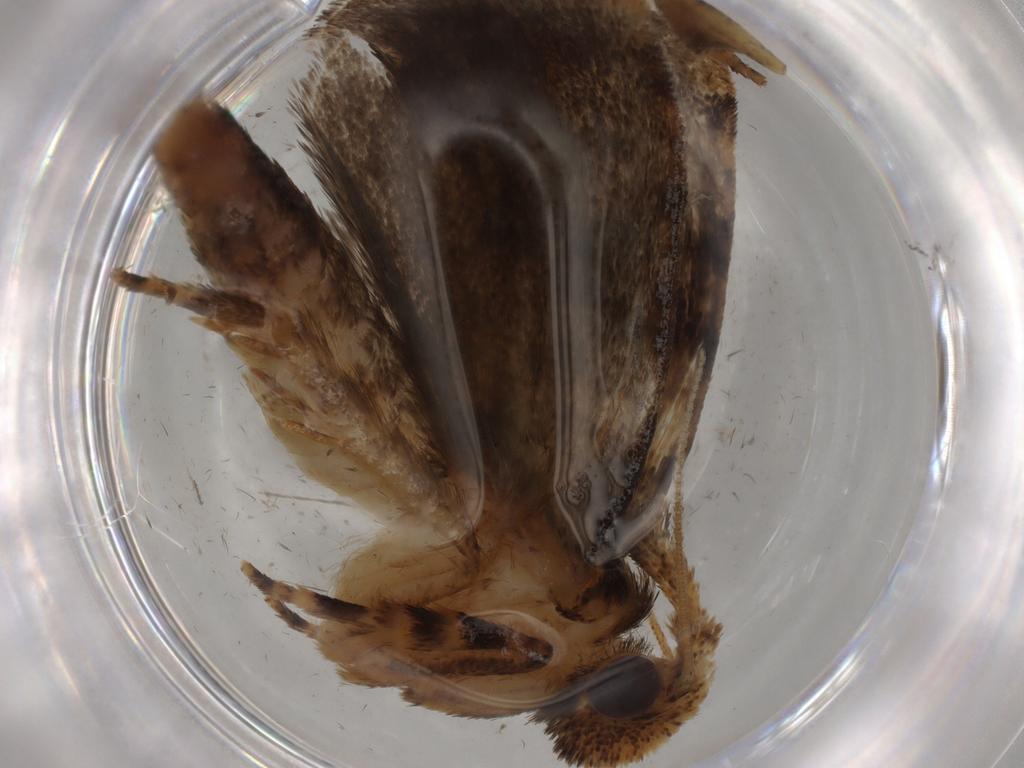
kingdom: Animalia
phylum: Arthropoda
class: Insecta
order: Lepidoptera
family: Tineidae
